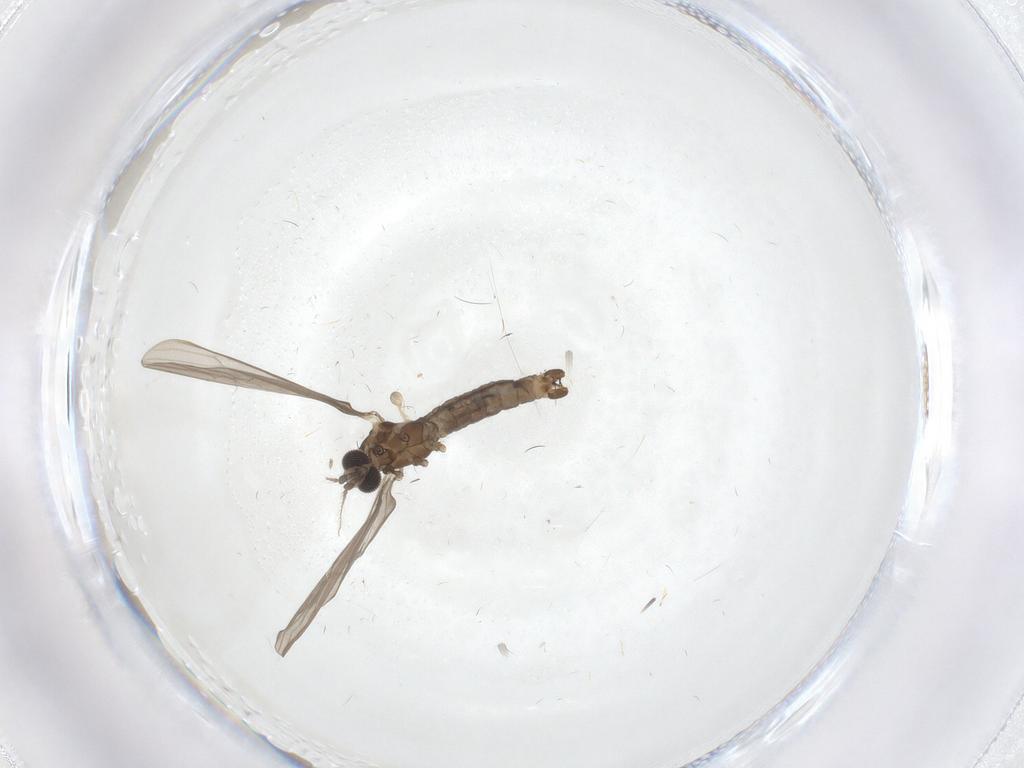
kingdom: Animalia
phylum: Arthropoda
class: Insecta
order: Diptera
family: Limoniidae
